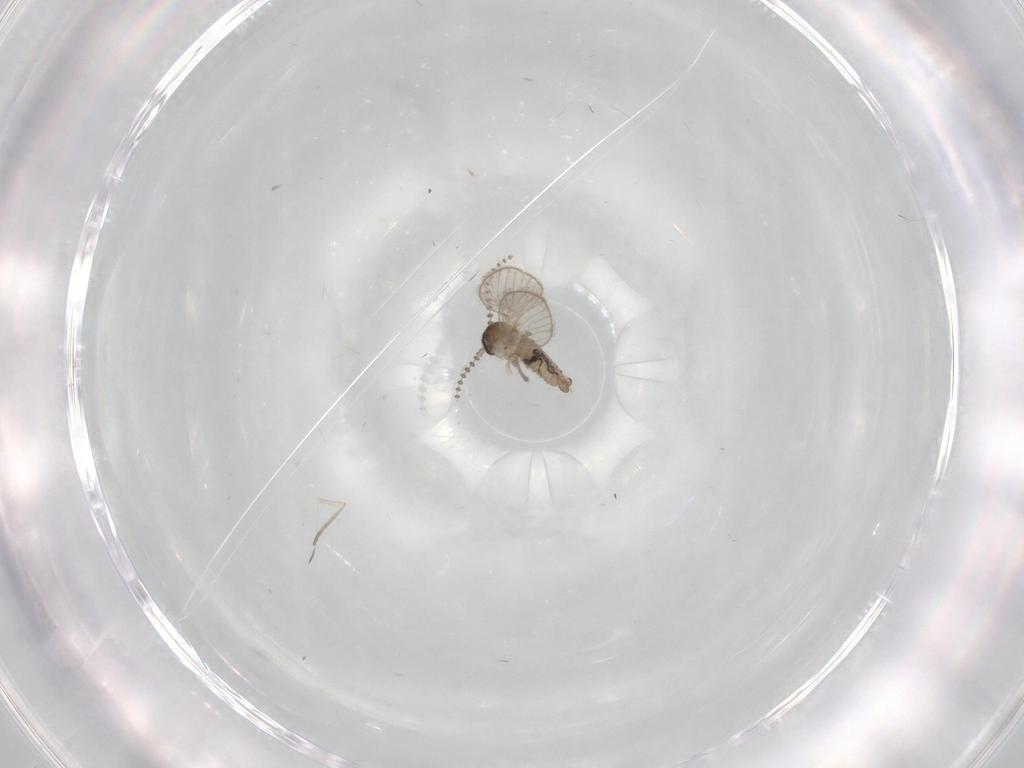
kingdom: Animalia
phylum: Arthropoda
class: Insecta
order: Diptera
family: Psychodidae
